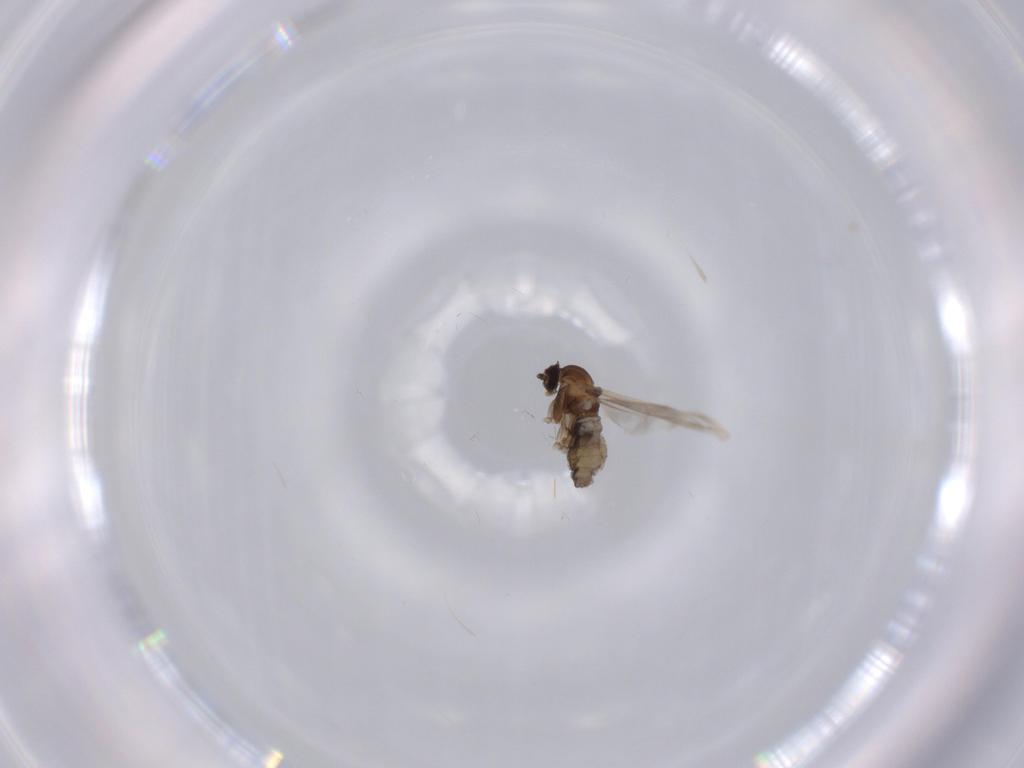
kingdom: Animalia
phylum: Arthropoda
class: Insecta
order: Diptera
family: Cecidomyiidae
